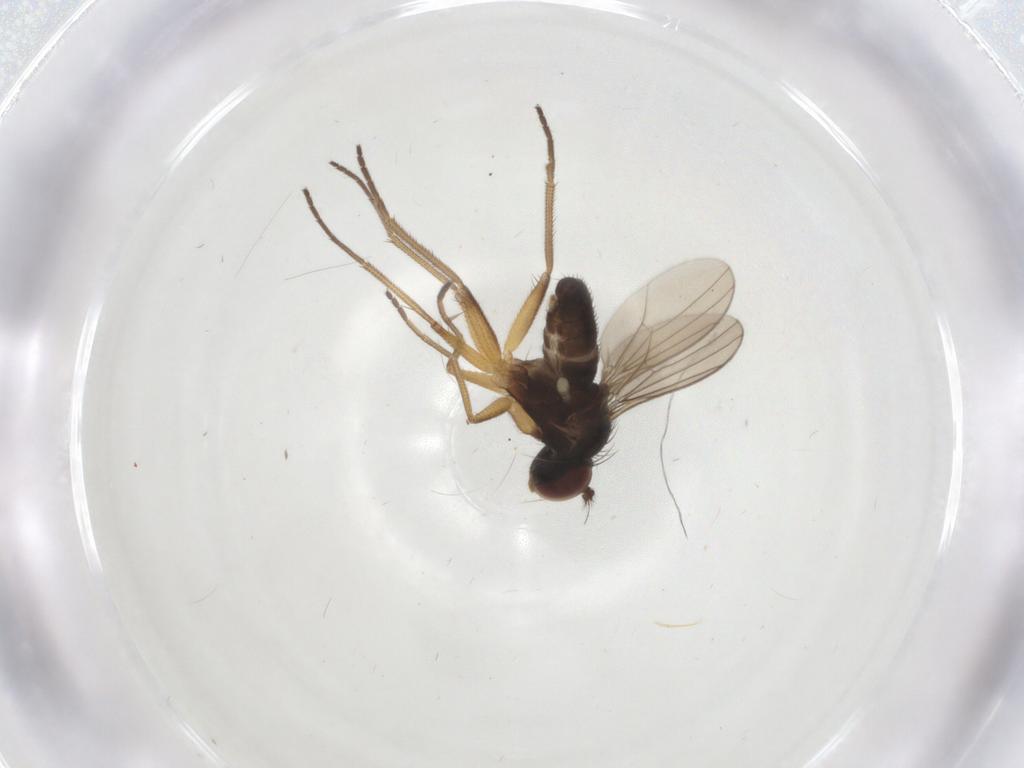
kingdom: Animalia
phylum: Arthropoda
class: Insecta
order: Diptera
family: Dolichopodidae
